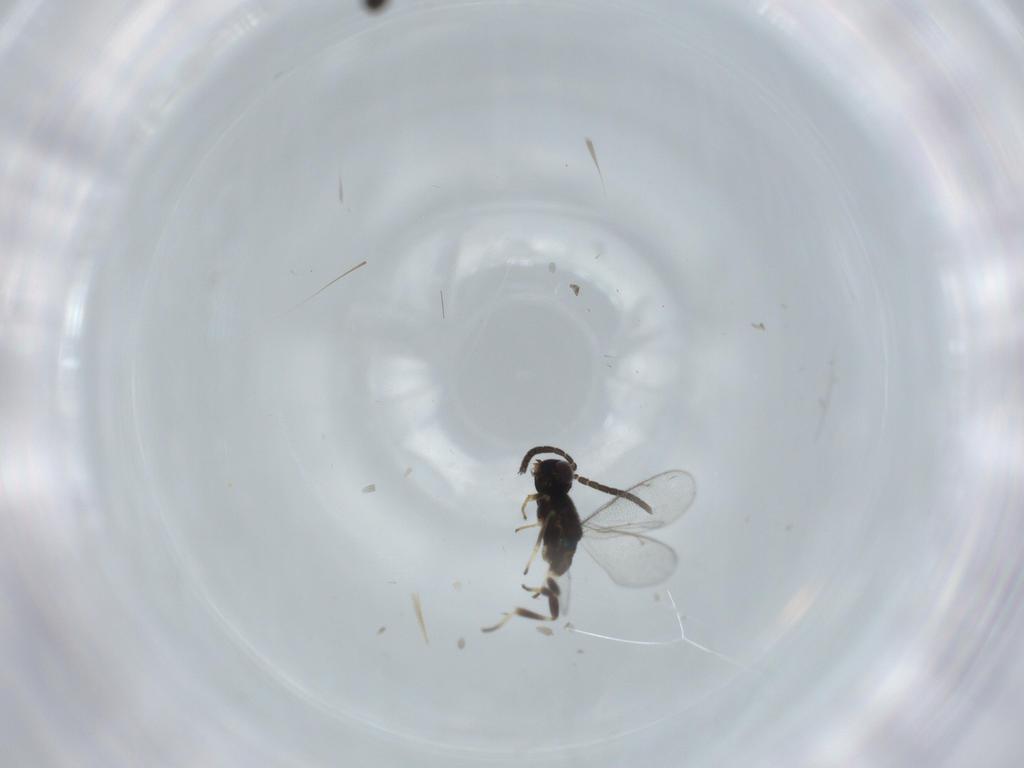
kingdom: Animalia
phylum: Arthropoda
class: Insecta
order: Hymenoptera
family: Eupelmidae
